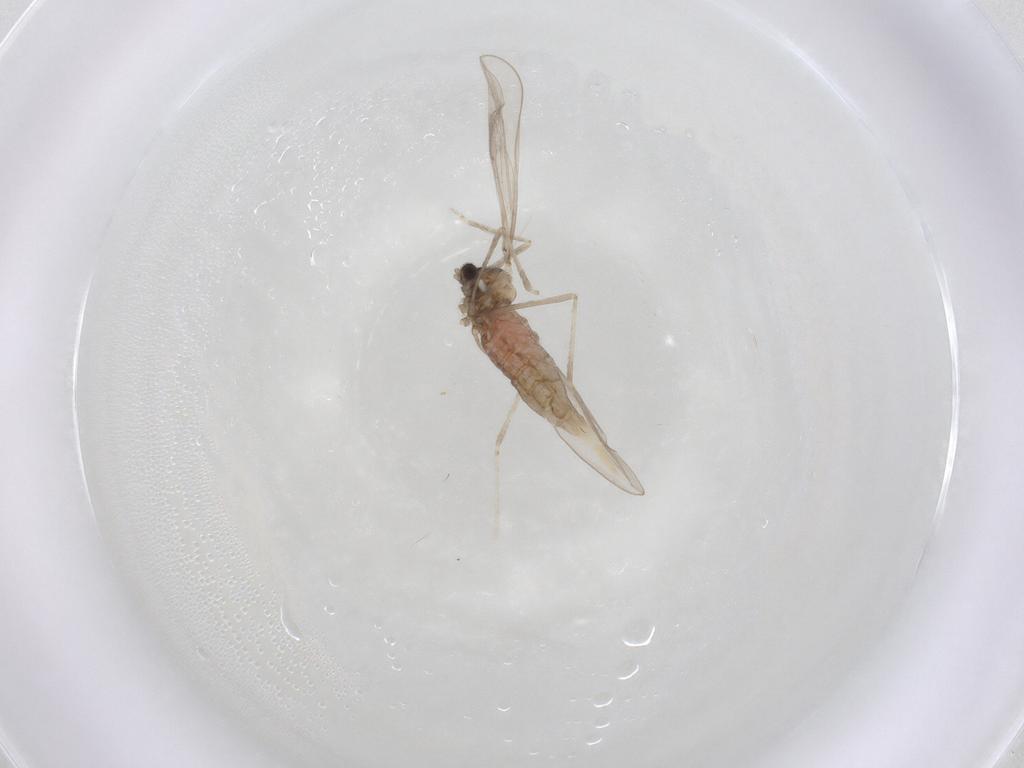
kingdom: Animalia
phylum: Arthropoda
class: Insecta
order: Diptera
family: Cecidomyiidae
